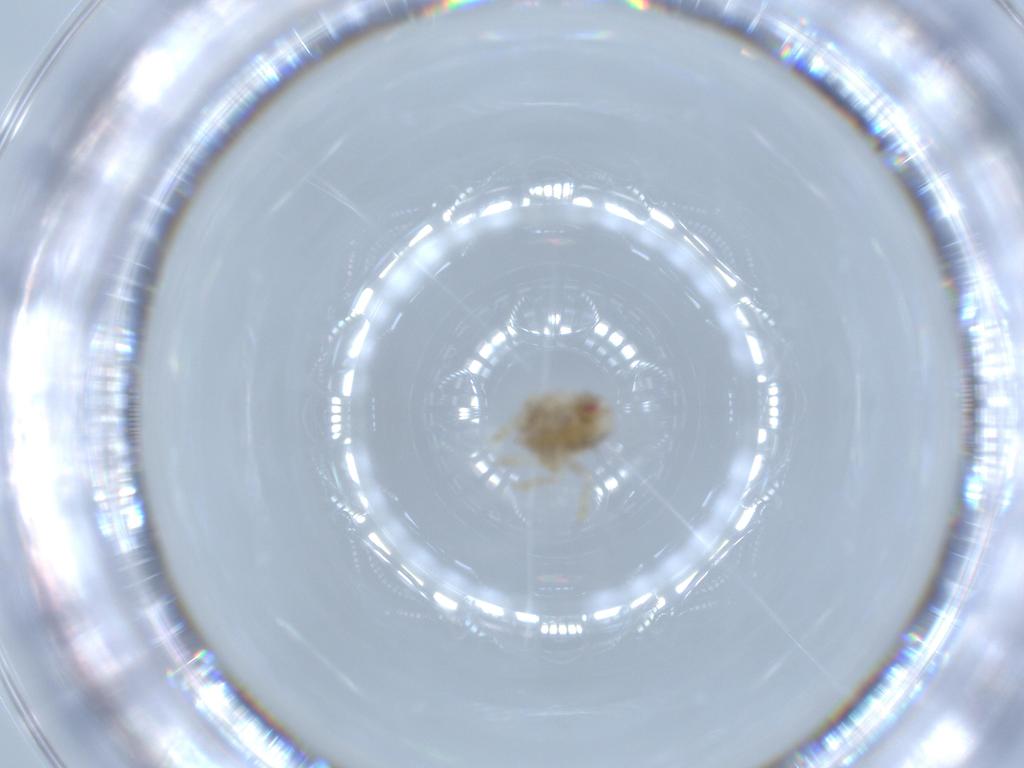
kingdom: Animalia
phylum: Arthropoda
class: Insecta
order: Hemiptera
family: Acanaloniidae
